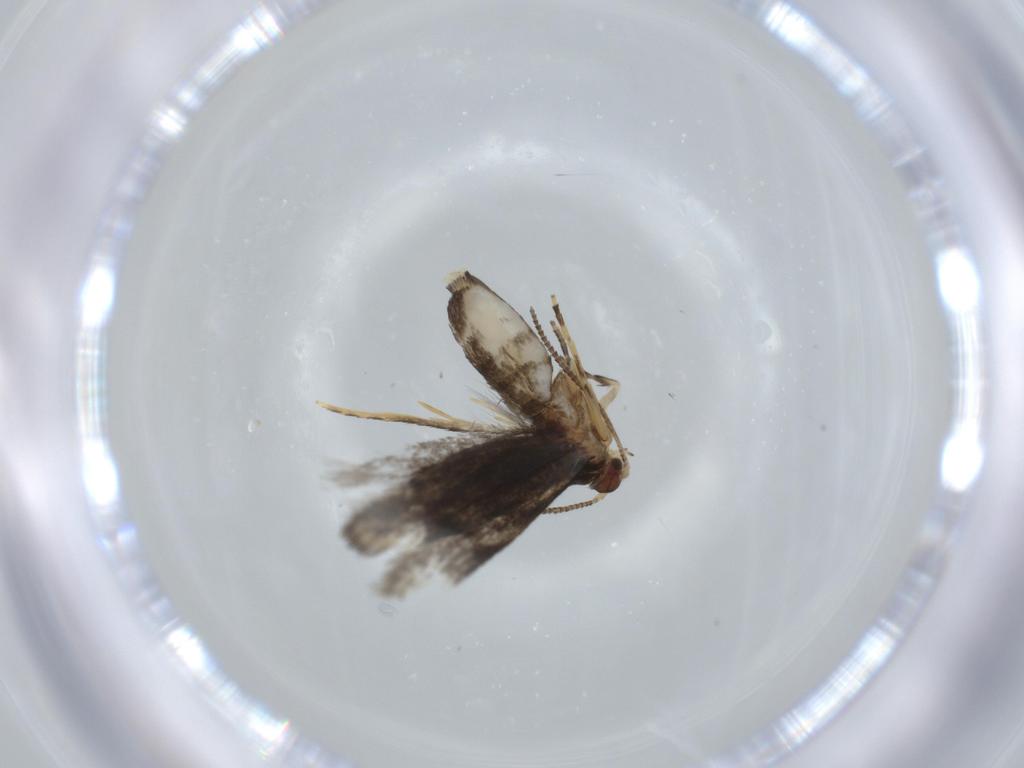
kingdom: Animalia
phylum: Arthropoda
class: Insecta
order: Lepidoptera
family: Tineidae
